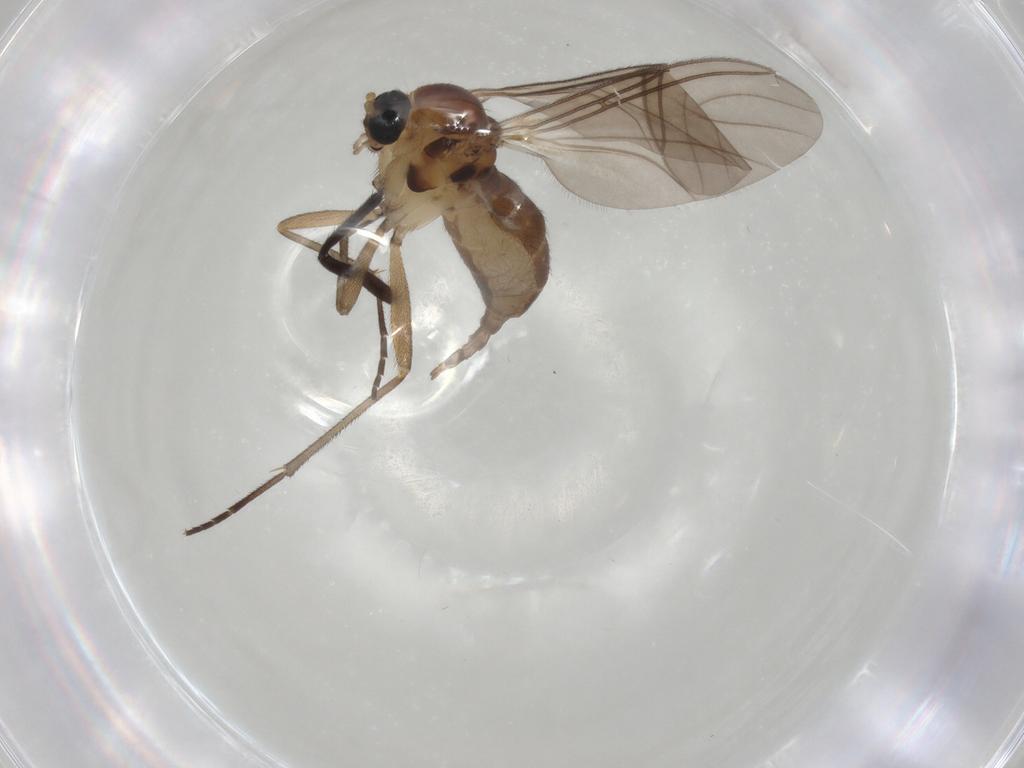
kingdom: Animalia
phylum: Arthropoda
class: Insecta
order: Diptera
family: Sciaridae
